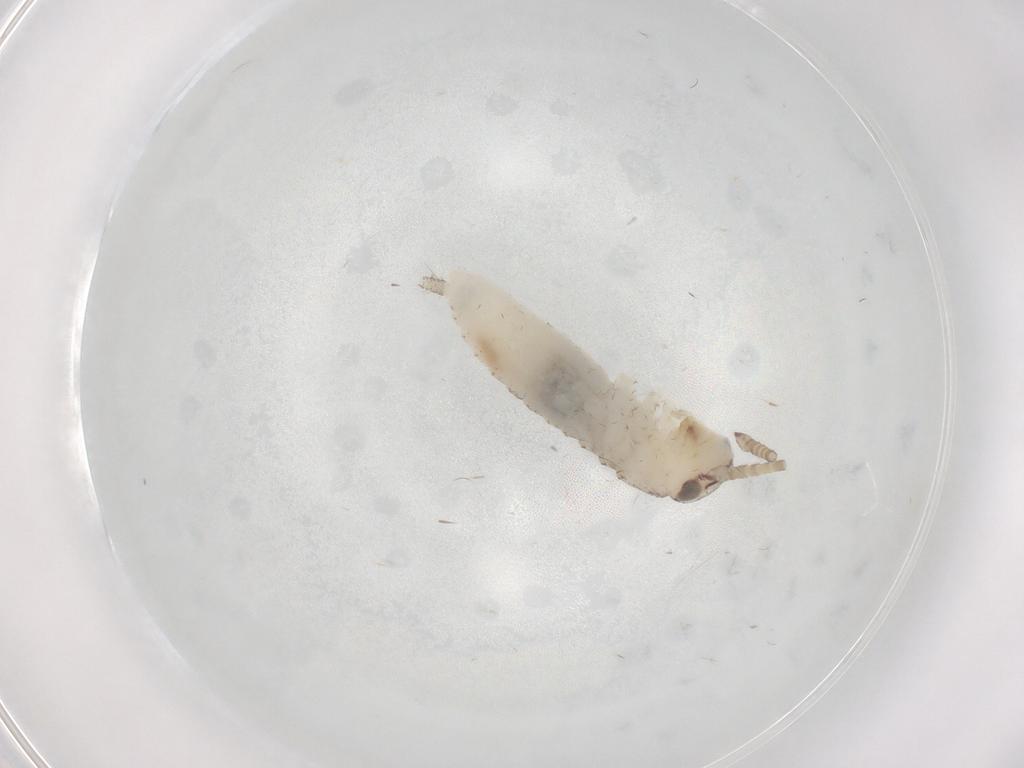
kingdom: Animalia
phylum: Arthropoda
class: Insecta
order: Orthoptera
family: Gryllidae
